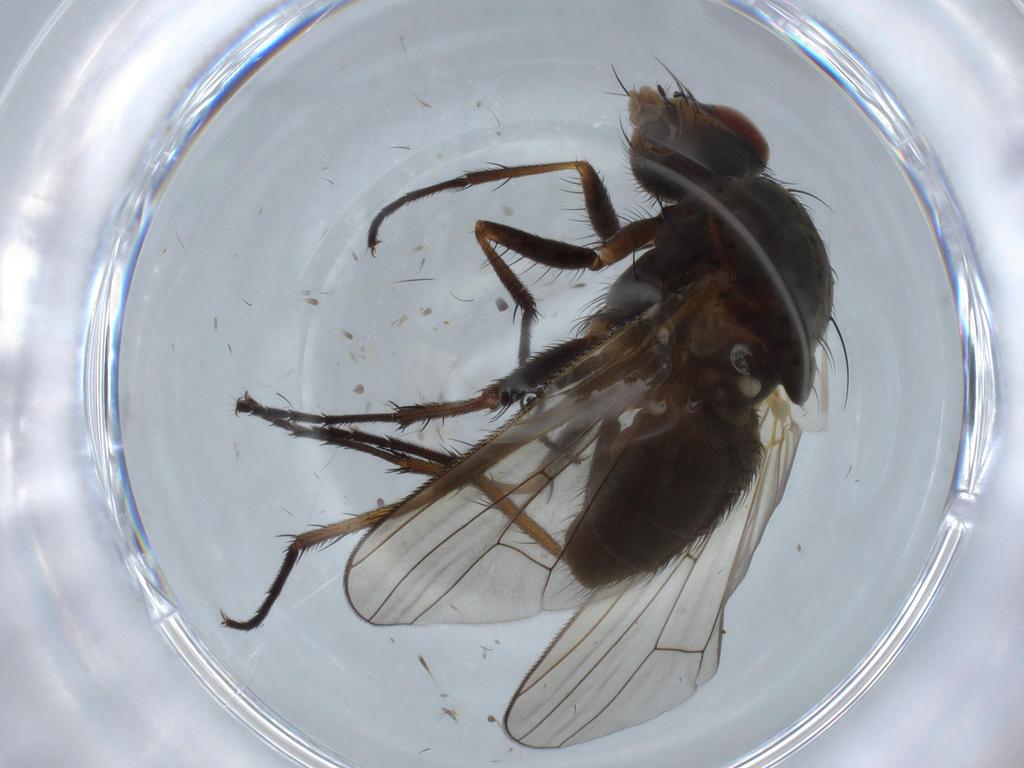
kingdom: Animalia
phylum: Arthropoda
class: Insecta
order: Diptera
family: Anthomyiidae
